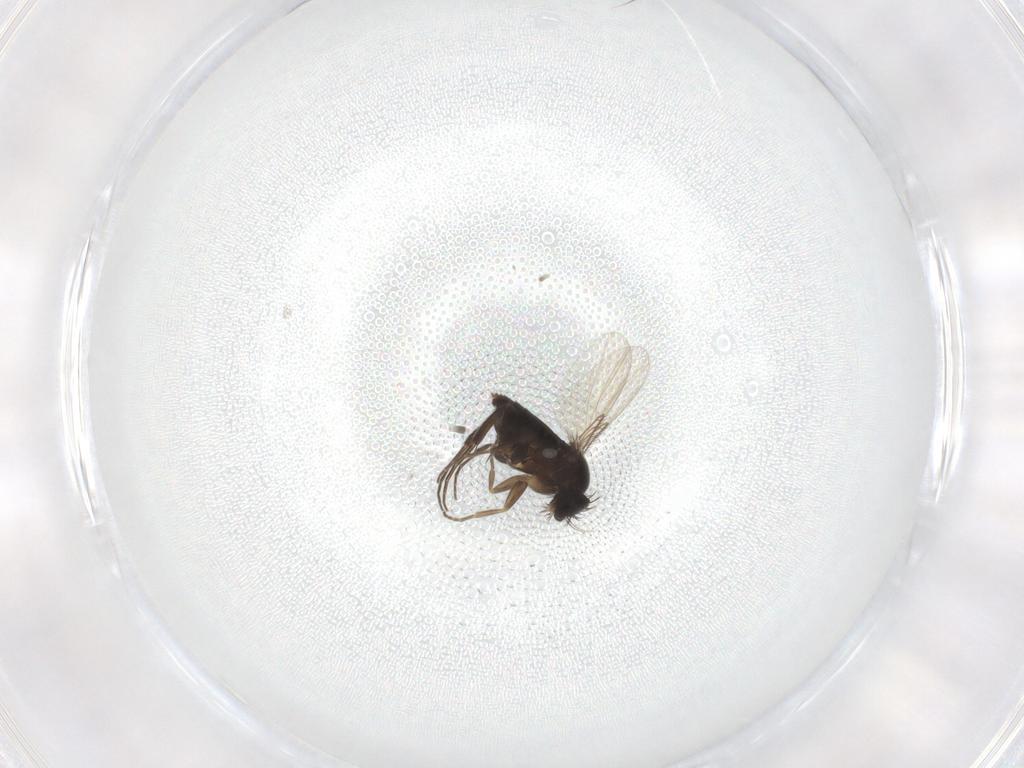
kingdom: Animalia
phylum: Arthropoda
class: Insecta
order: Diptera
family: Phoridae
